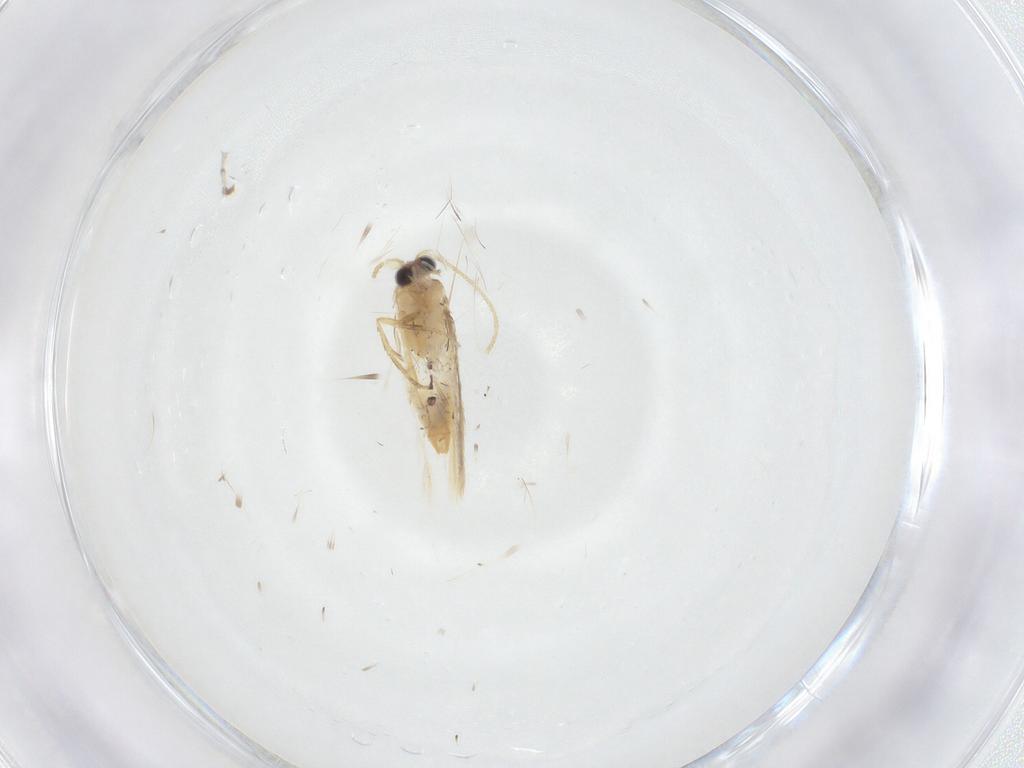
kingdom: Animalia
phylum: Arthropoda
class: Insecta
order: Lepidoptera
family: Nepticulidae
